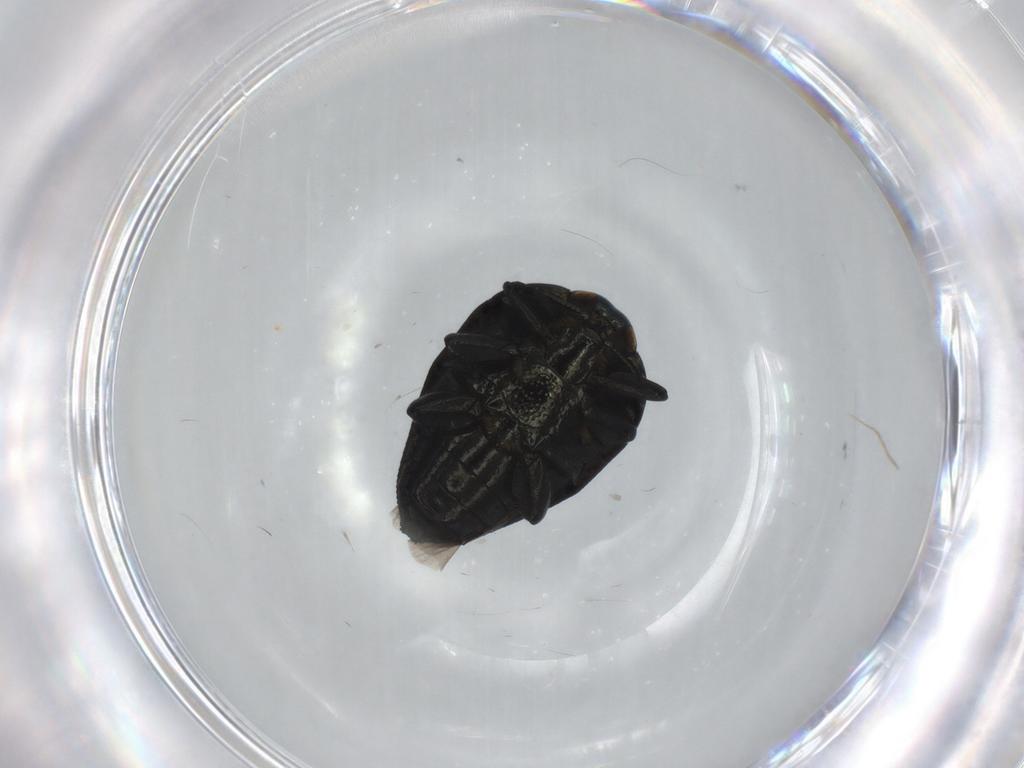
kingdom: Animalia
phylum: Arthropoda
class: Insecta
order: Coleoptera
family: Buprestidae
